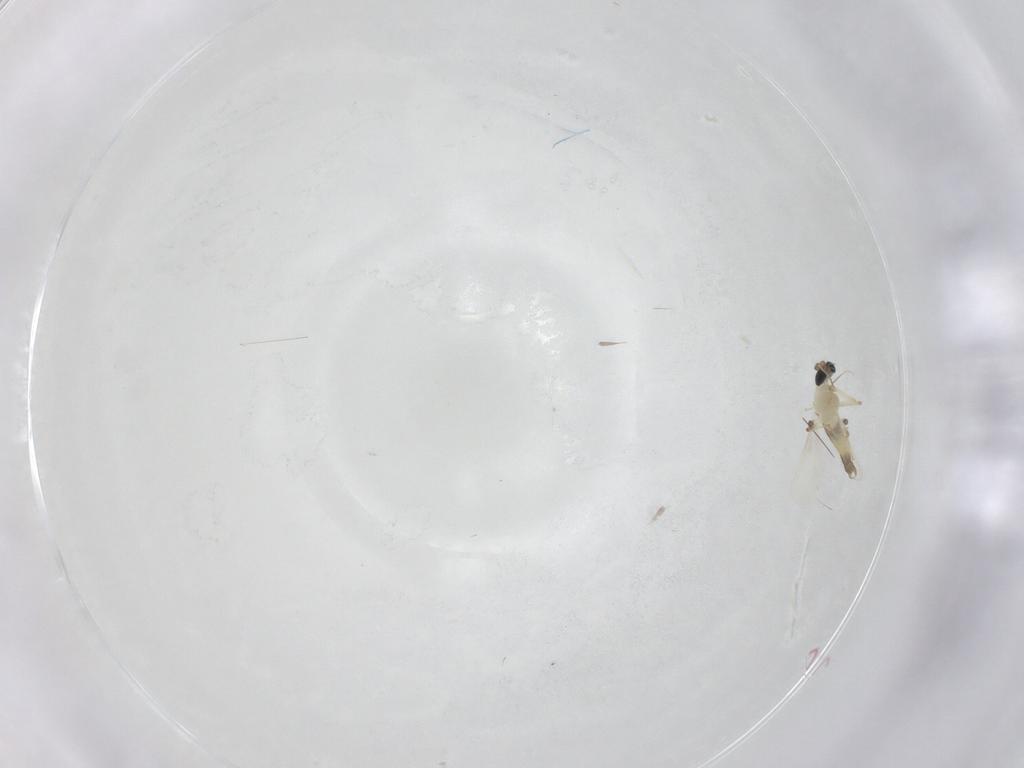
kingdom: Animalia
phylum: Arthropoda
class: Insecta
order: Diptera
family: Chironomidae
